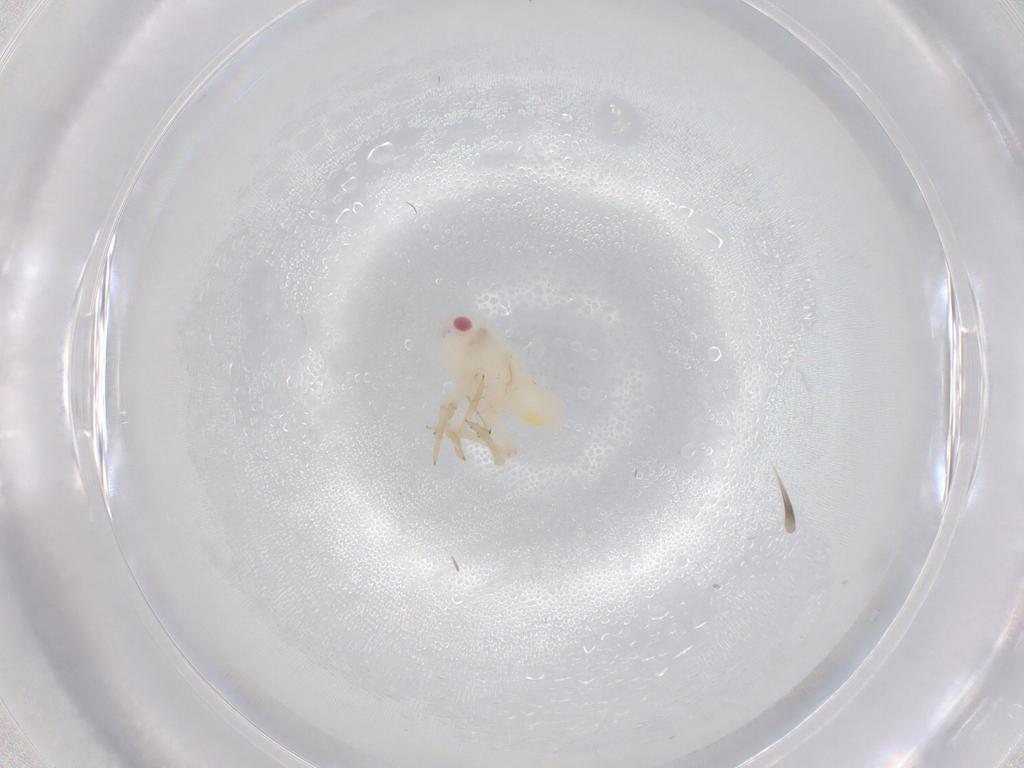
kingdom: Animalia
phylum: Arthropoda
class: Insecta
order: Hemiptera
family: Tropiduchidae
